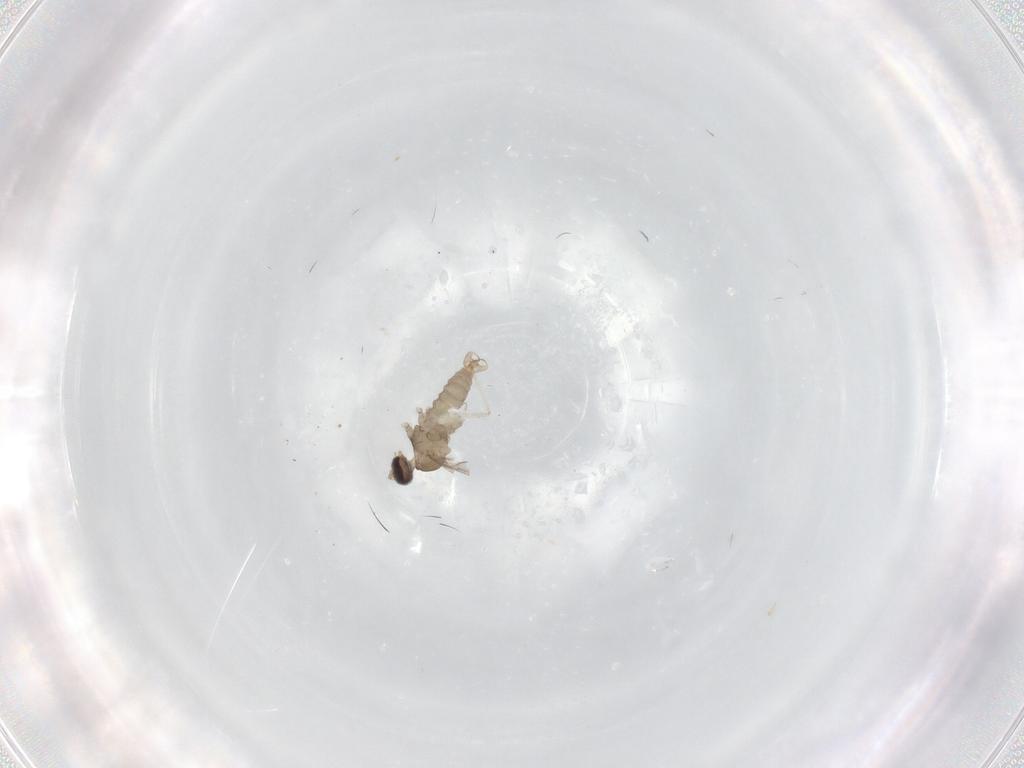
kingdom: Animalia
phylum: Arthropoda
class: Insecta
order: Diptera
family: Cecidomyiidae
